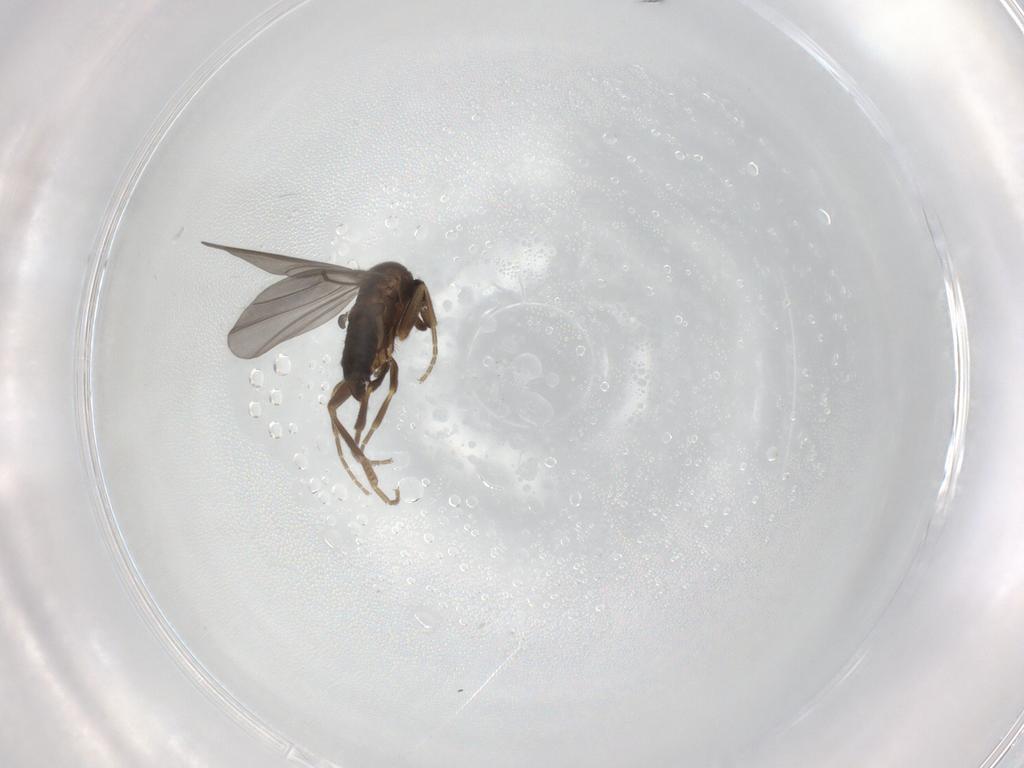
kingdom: Animalia
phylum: Arthropoda
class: Insecta
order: Diptera
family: Phoridae
